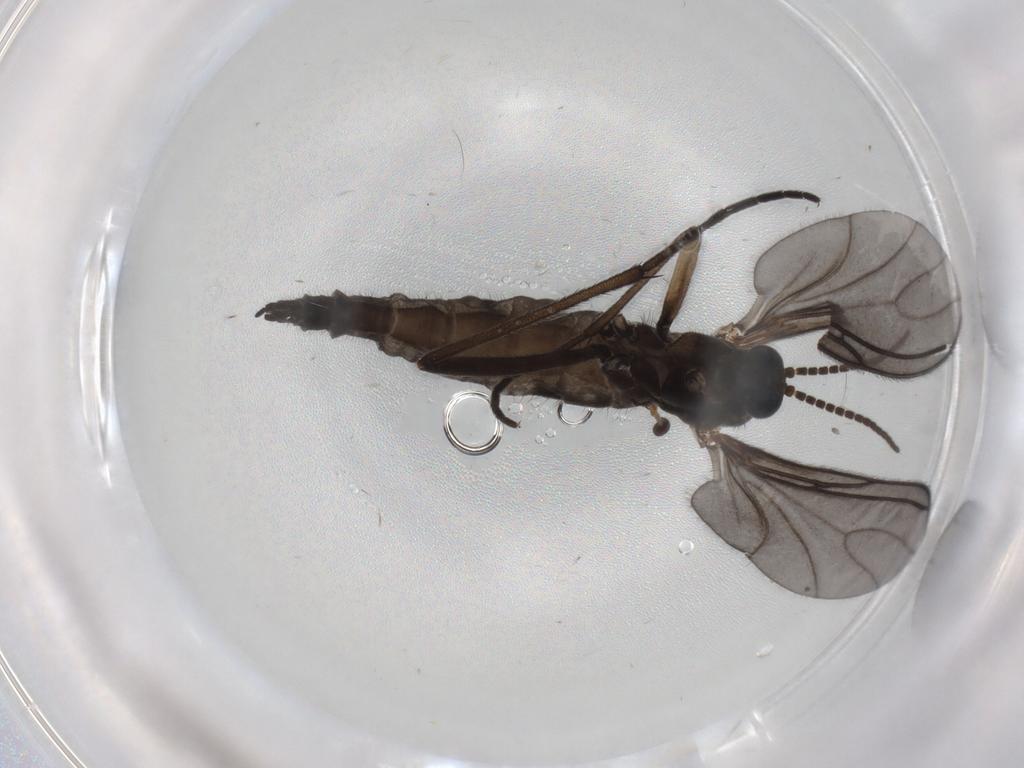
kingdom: Animalia
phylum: Arthropoda
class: Insecta
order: Diptera
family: Sciaridae
